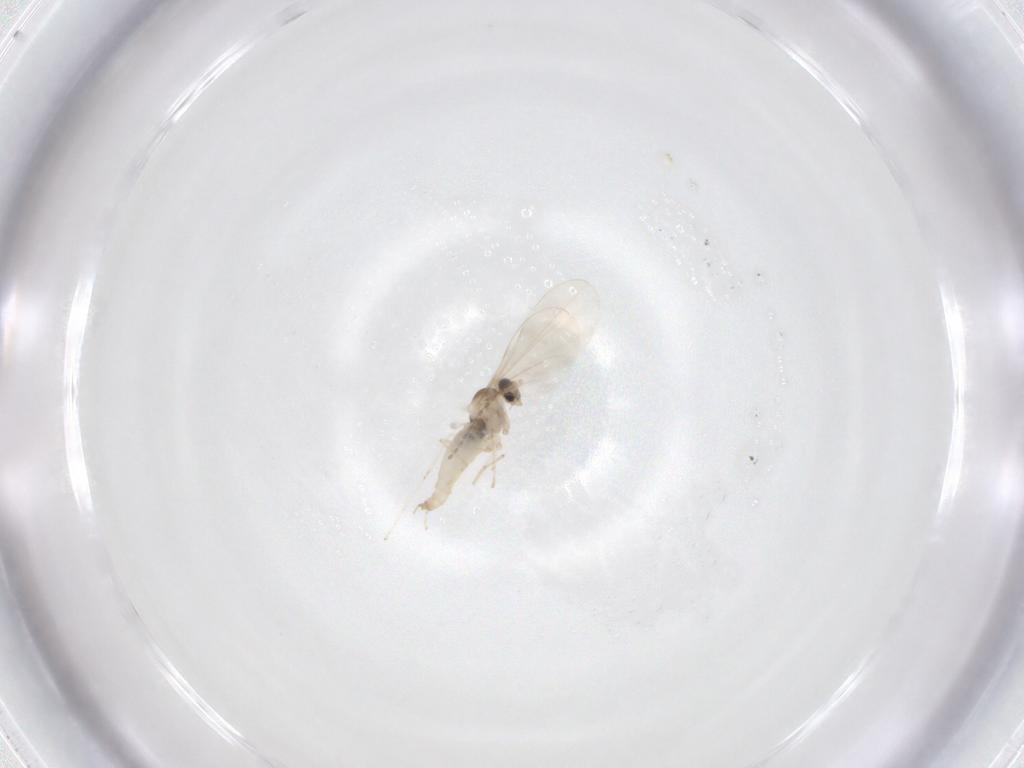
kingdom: Animalia
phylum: Arthropoda
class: Insecta
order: Diptera
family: Cecidomyiidae
